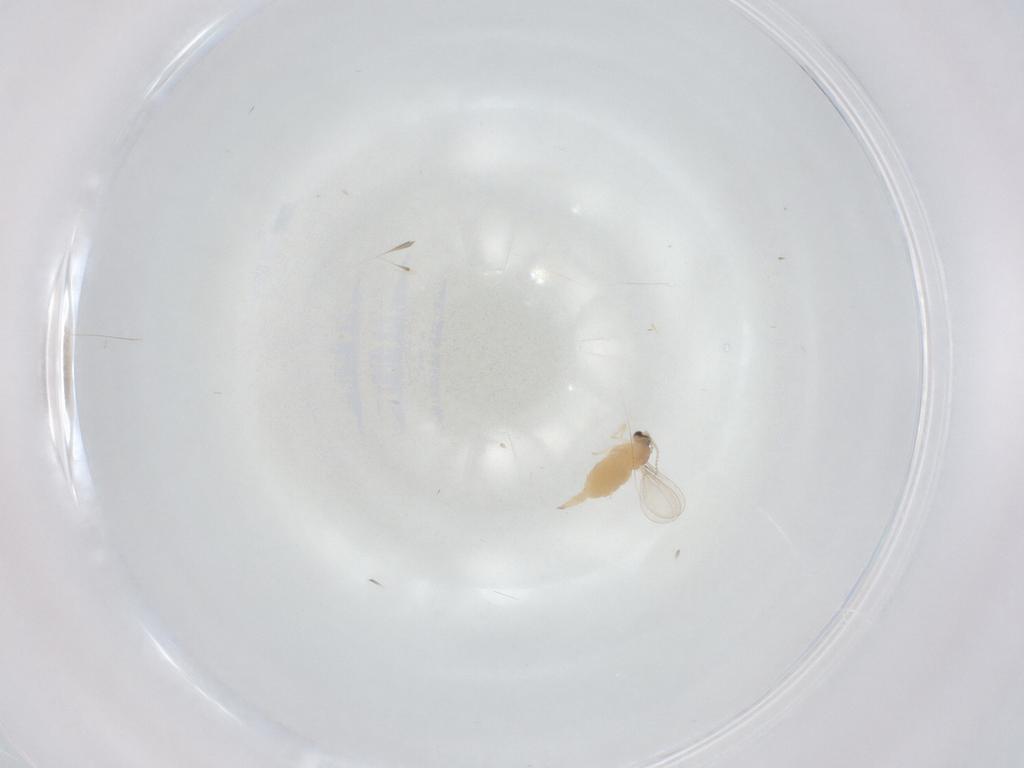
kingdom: Animalia
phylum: Arthropoda
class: Insecta
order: Diptera
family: Cecidomyiidae
